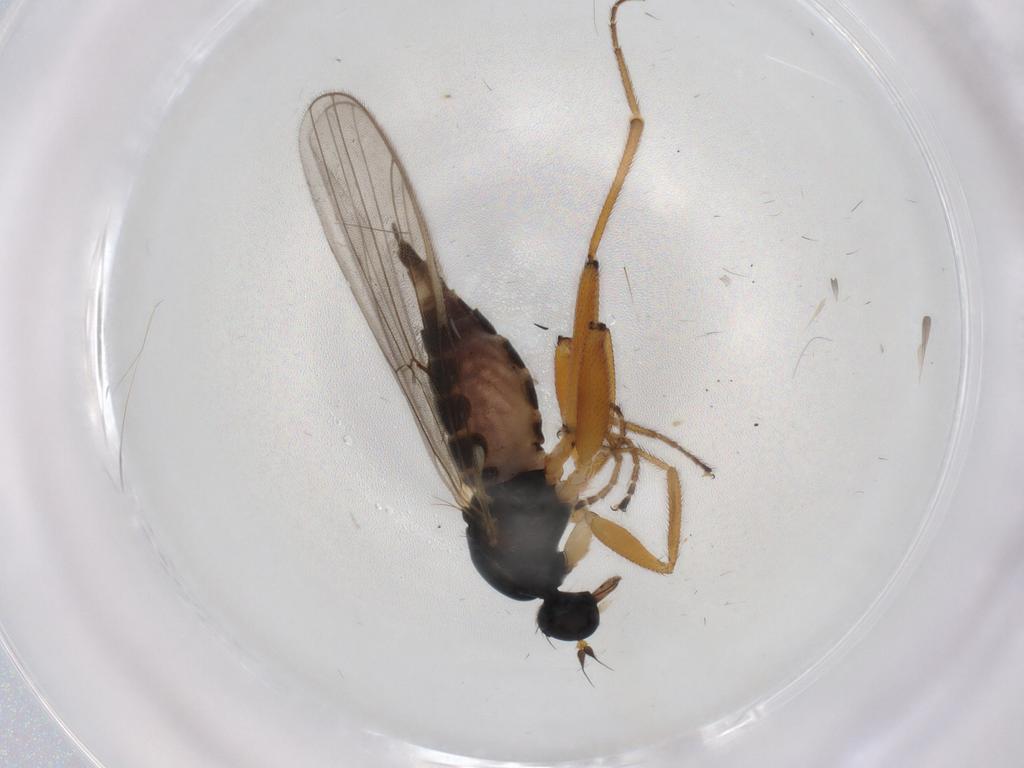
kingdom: Animalia
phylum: Arthropoda
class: Insecta
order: Diptera
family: Hybotidae
